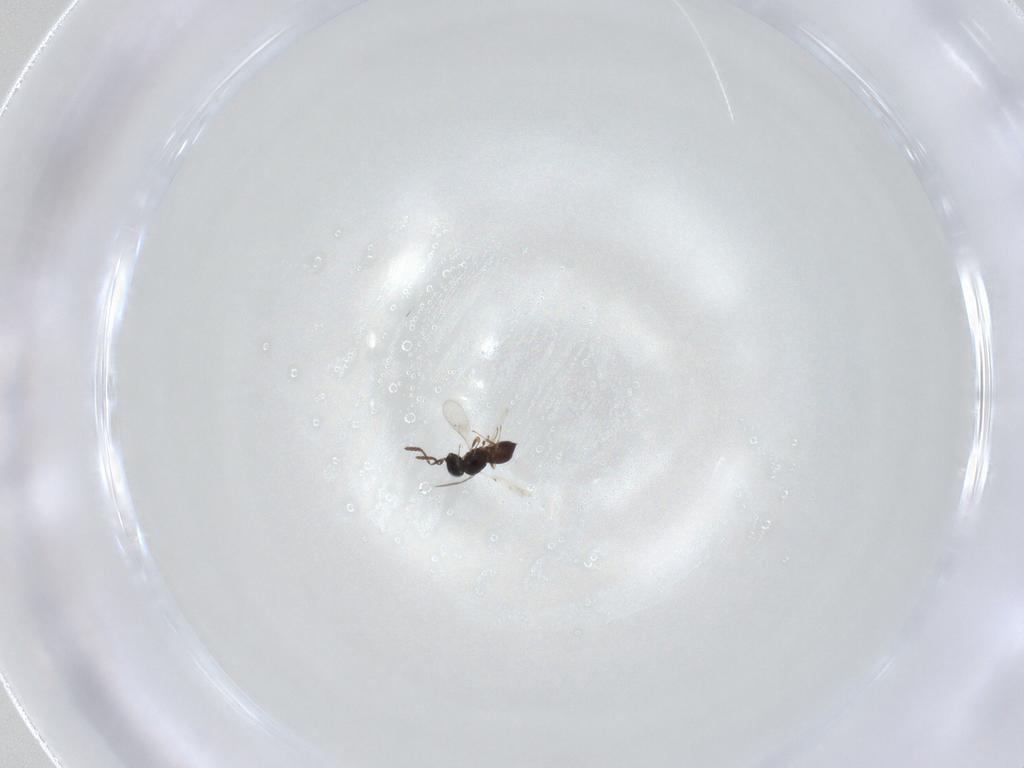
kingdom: Animalia
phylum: Arthropoda
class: Insecta
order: Hymenoptera
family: Scelionidae
